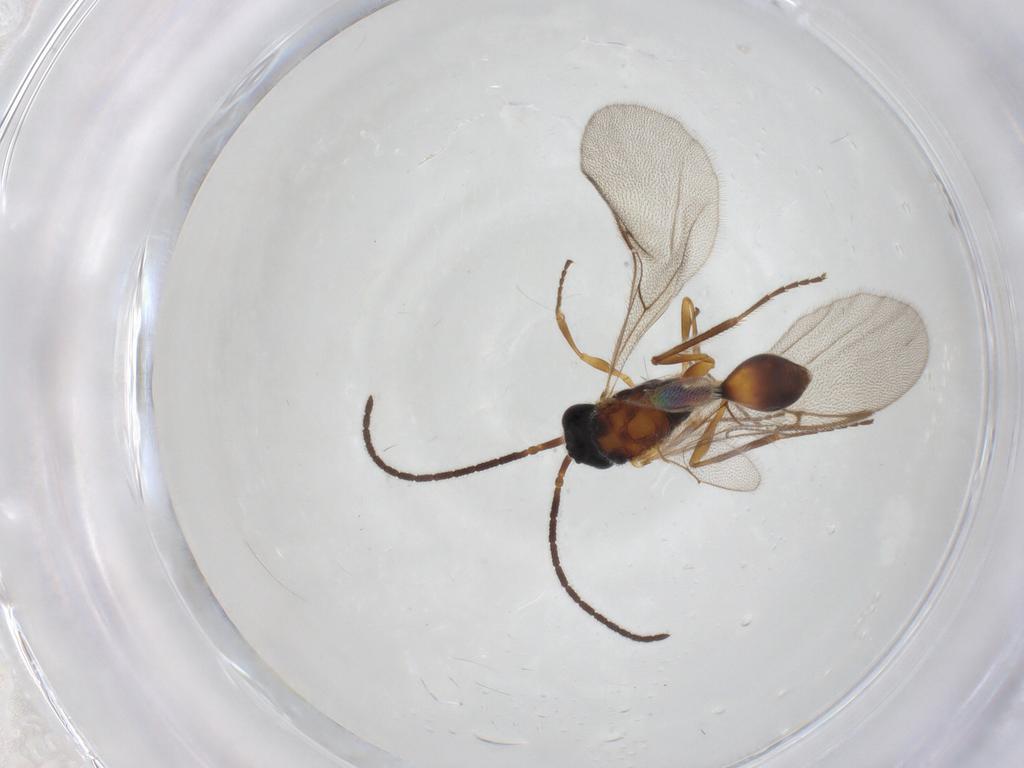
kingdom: Animalia
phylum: Arthropoda
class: Insecta
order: Hymenoptera
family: Diapriidae
